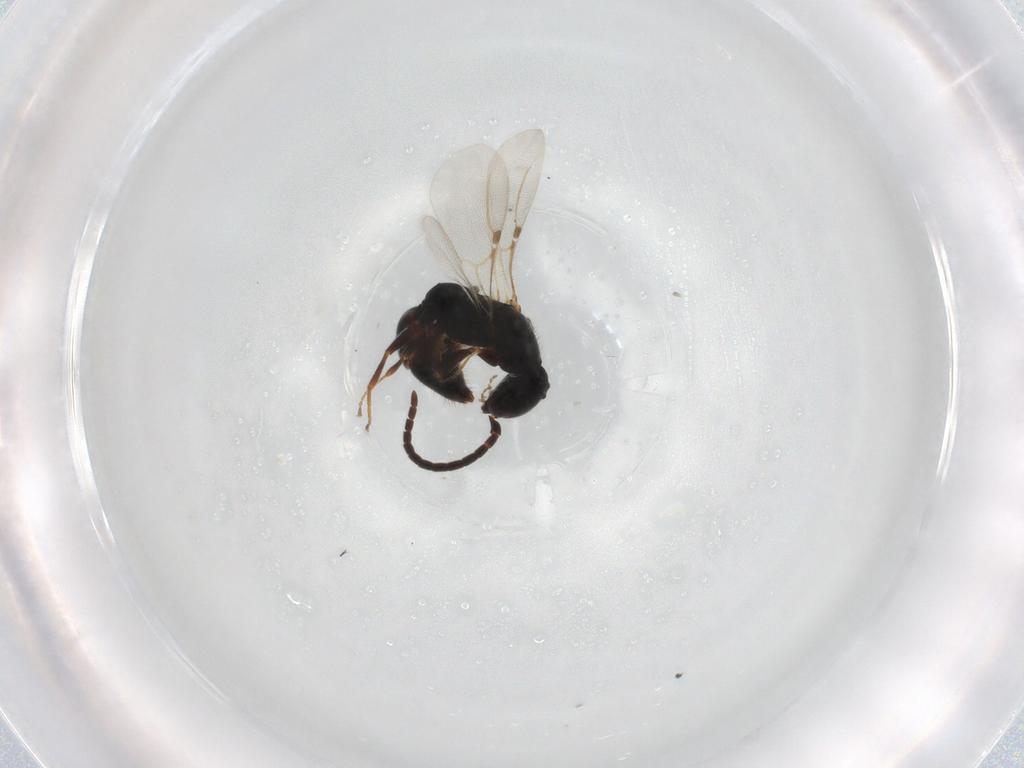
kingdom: Animalia
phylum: Arthropoda
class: Insecta
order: Hymenoptera
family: Bethylidae
